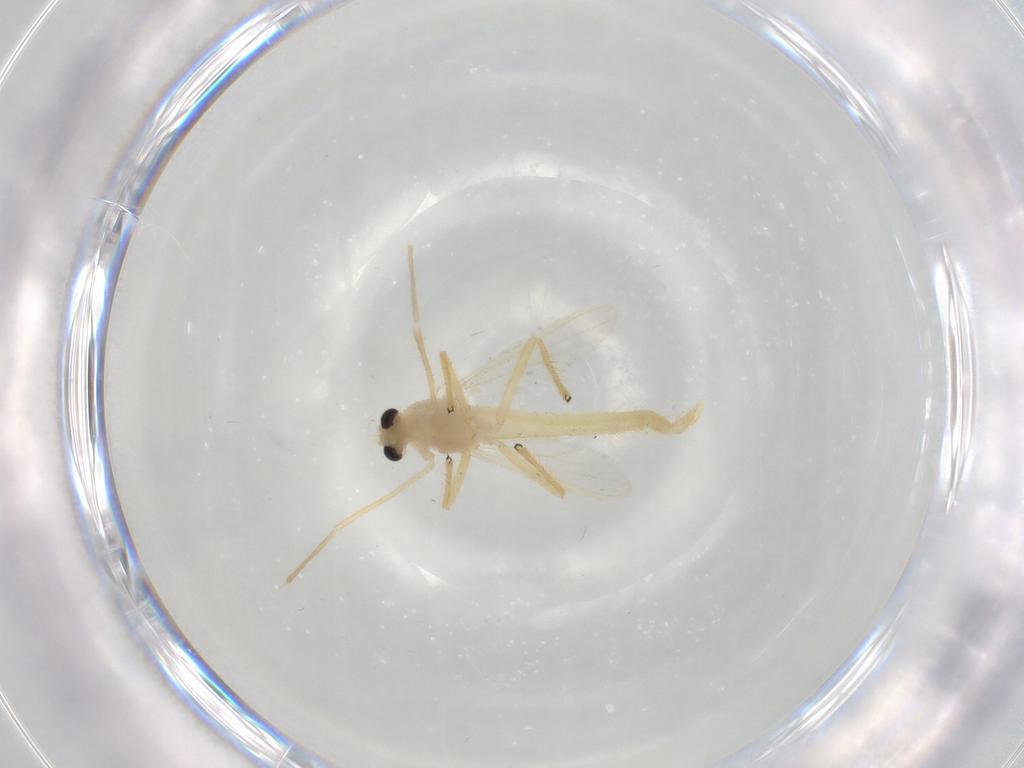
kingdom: Animalia
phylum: Arthropoda
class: Insecta
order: Diptera
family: Chironomidae
